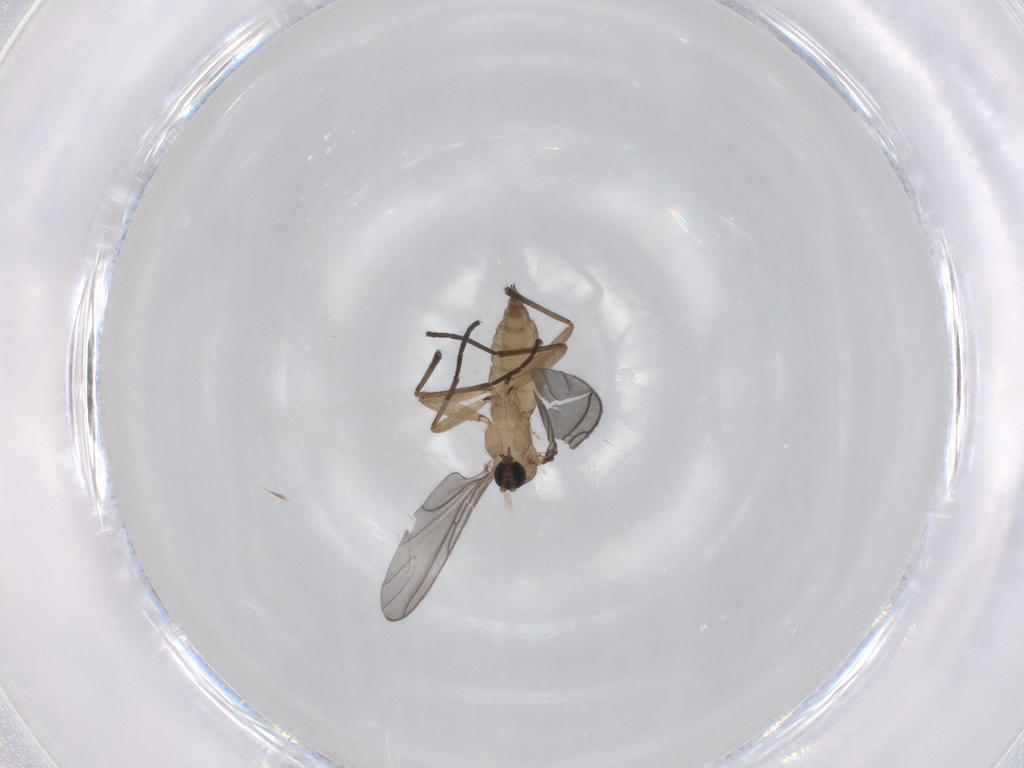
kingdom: Animalia
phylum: Arthropoda
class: Insecta
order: Diptera
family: Sciaridae
